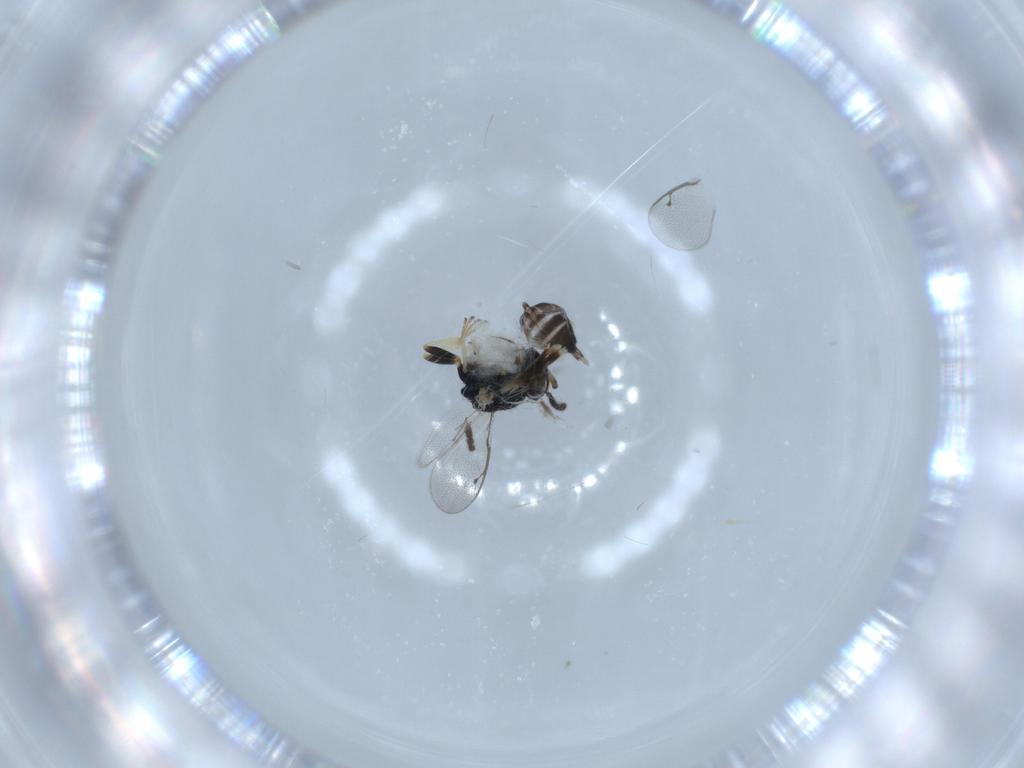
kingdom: Animalia
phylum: Arthropoda
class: Insecta
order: Hymenoptera
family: Pteromalidae
